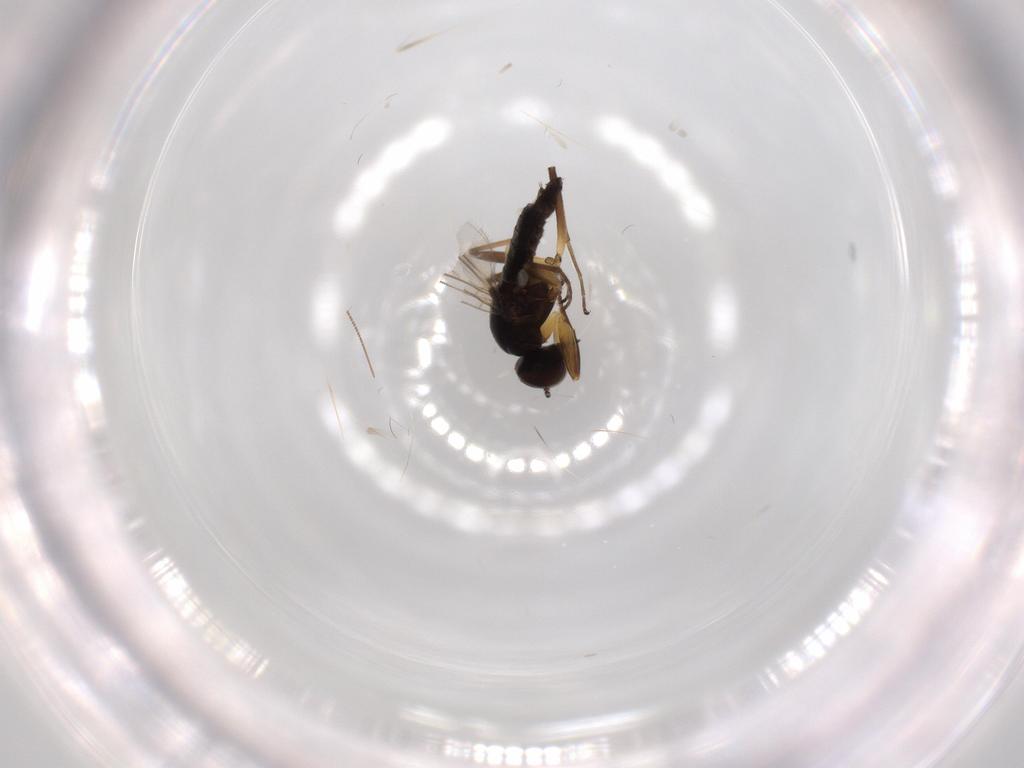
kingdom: Animalia
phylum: Arthropoda
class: Insecta
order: Diptera
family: Hybotidae
